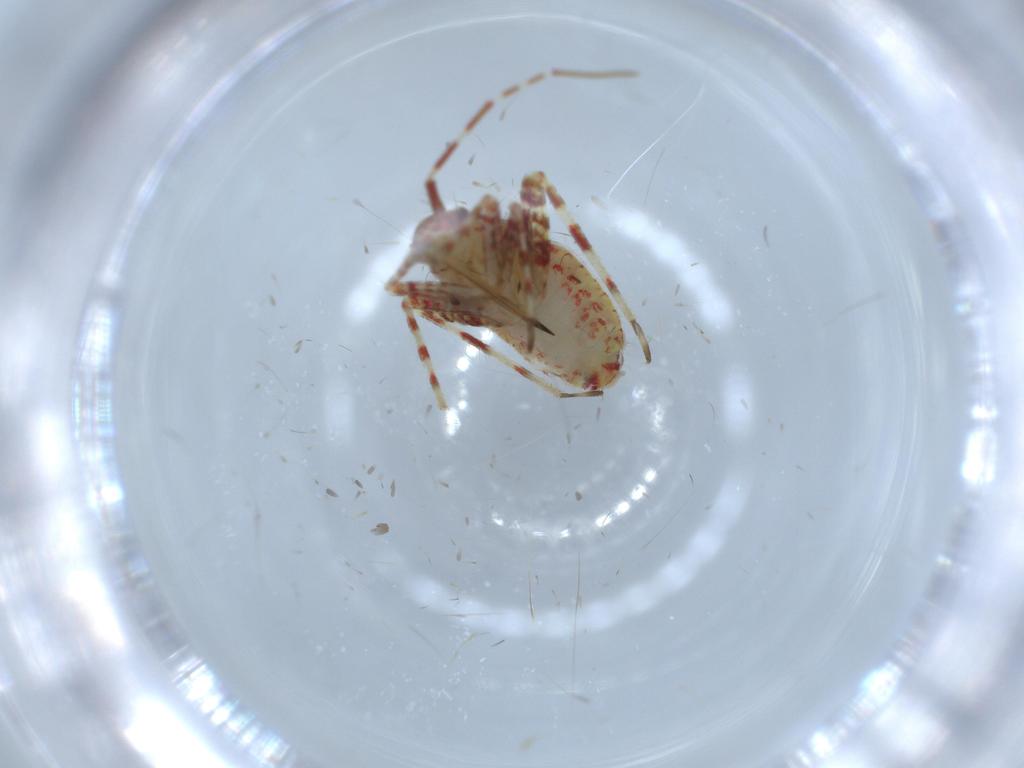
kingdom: Animalia
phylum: Arthropoda
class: Insecta
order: Hemiptera
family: Miridae
